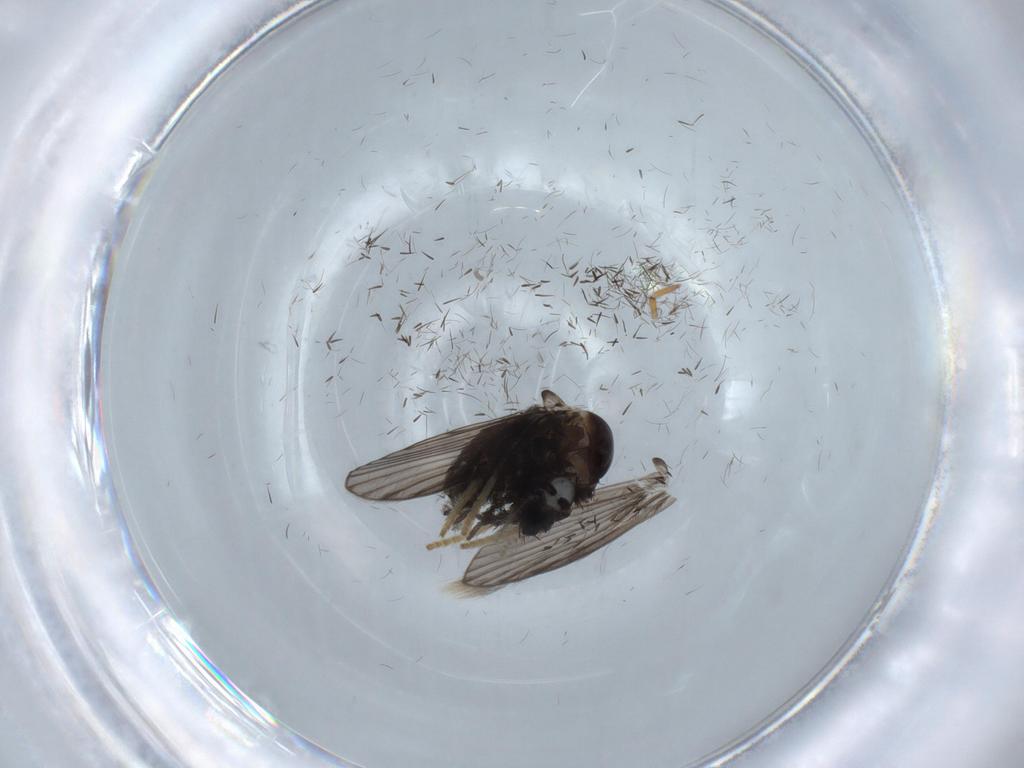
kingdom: Animalia
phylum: Arthropoda
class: Insecta
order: Diptera
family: Psychodidae
